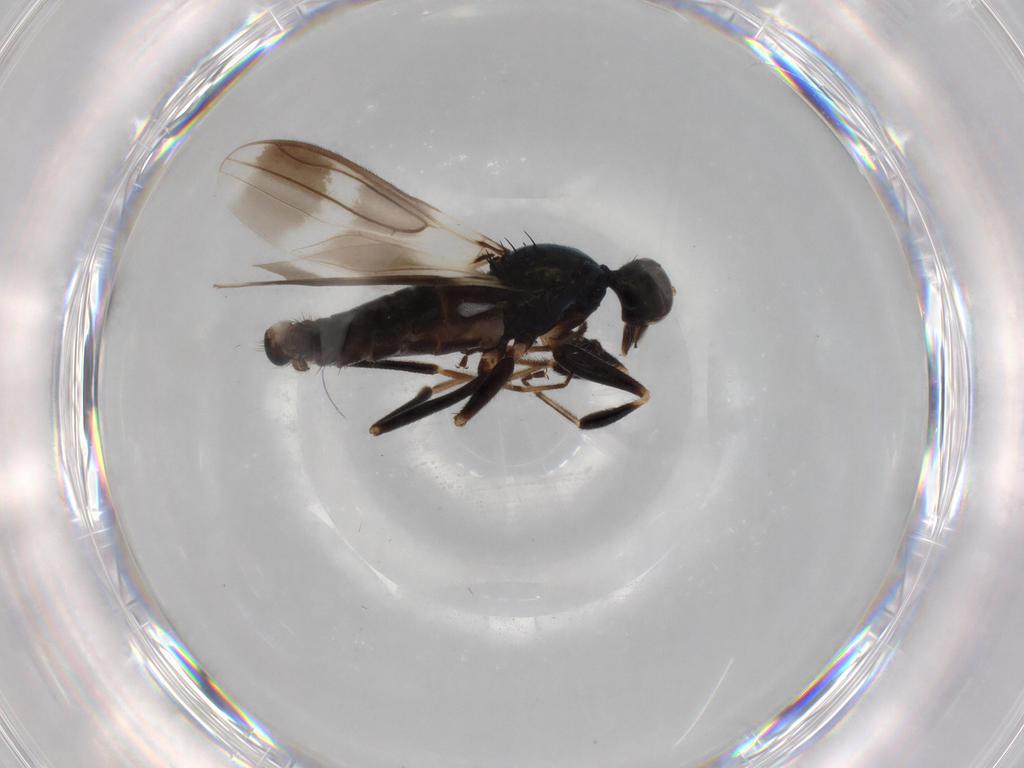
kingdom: Animalia
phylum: Arthropoda
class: Insecta
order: Diptera
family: Hybotidae
